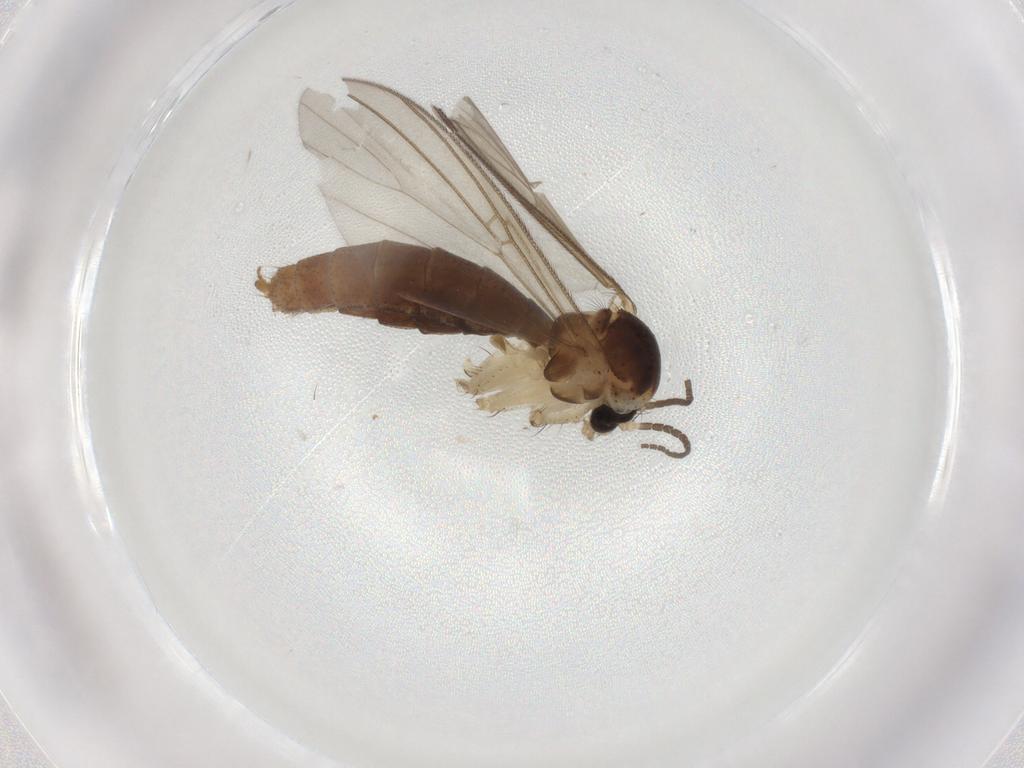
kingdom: Animalia
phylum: Arthropoda
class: Insecta
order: Diptera
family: Mycetophilidae
